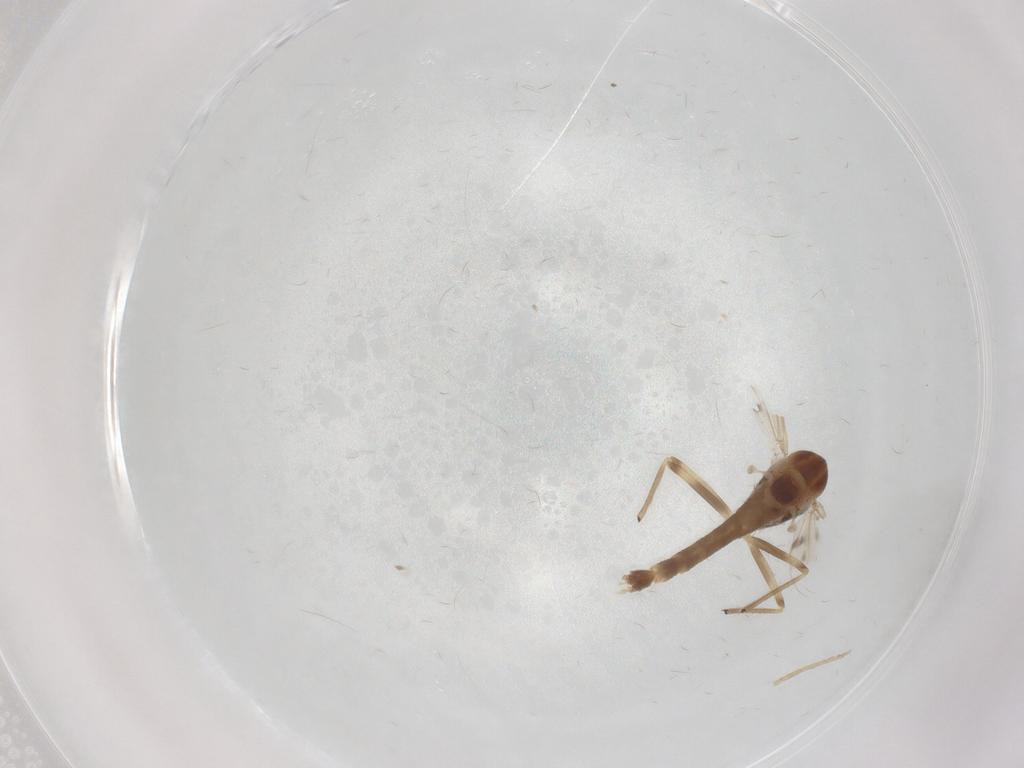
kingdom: Animalia
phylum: Arthropoda
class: Insecta
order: Diptera
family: Chironomidae
